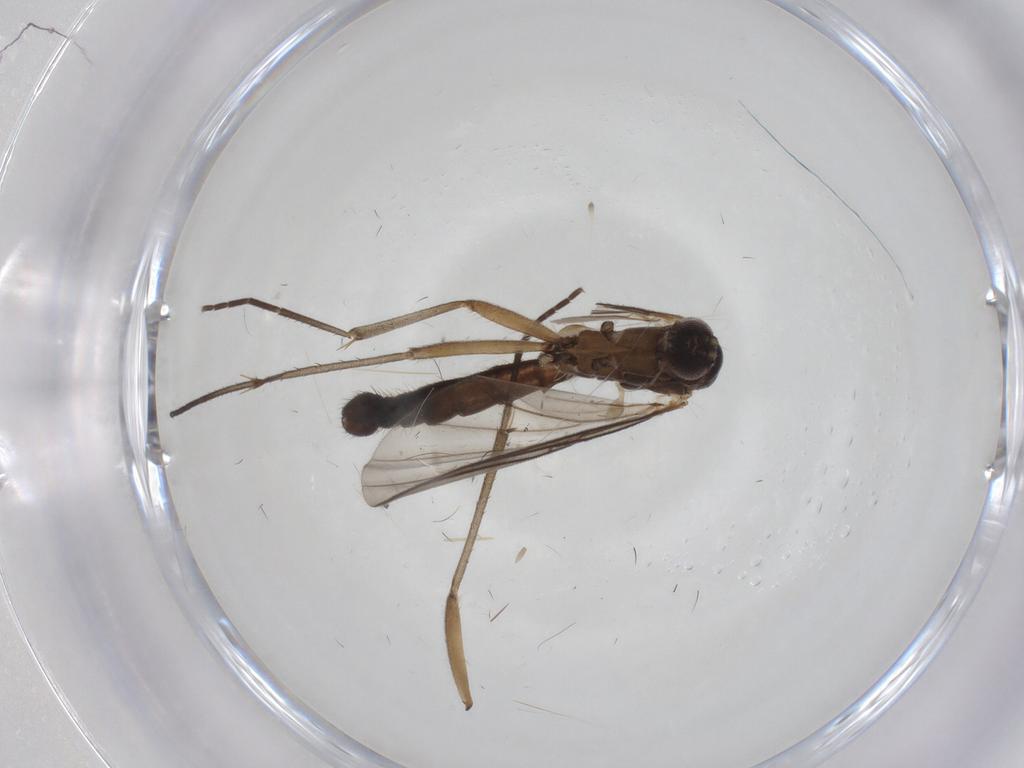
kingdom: Animalia
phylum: Arthropoda
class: Insecta
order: Diptera
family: Mycetophilidae
